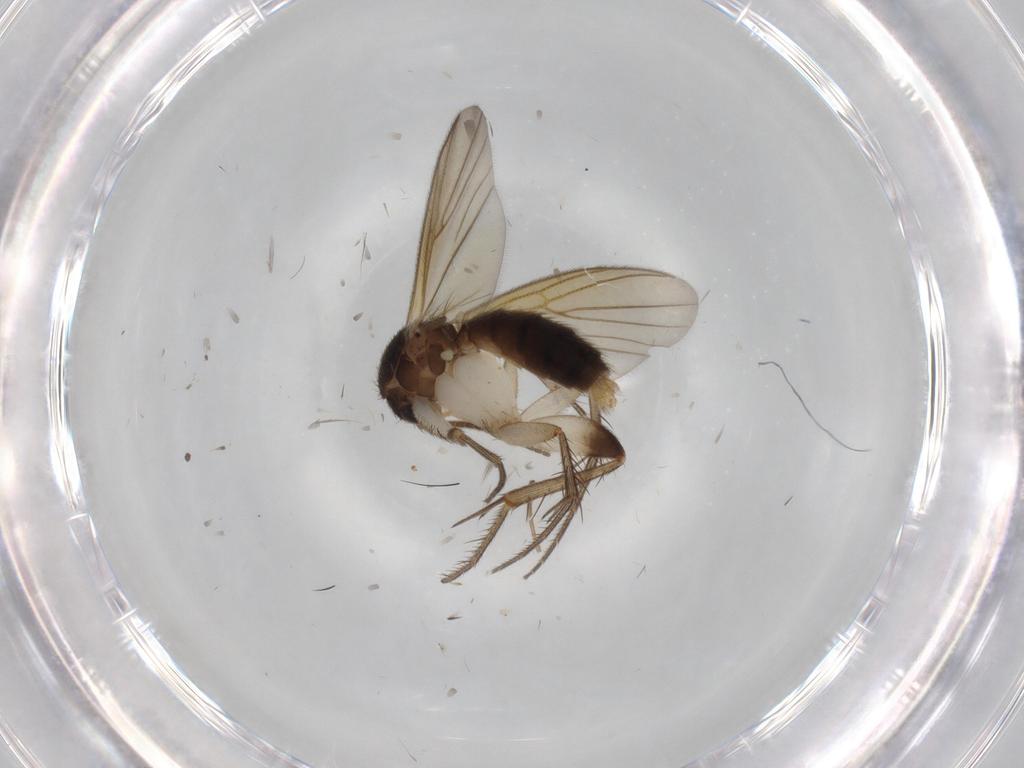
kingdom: Animalia
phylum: Arthropoda
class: Insecta
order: Diptera
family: Mycetophilidae
